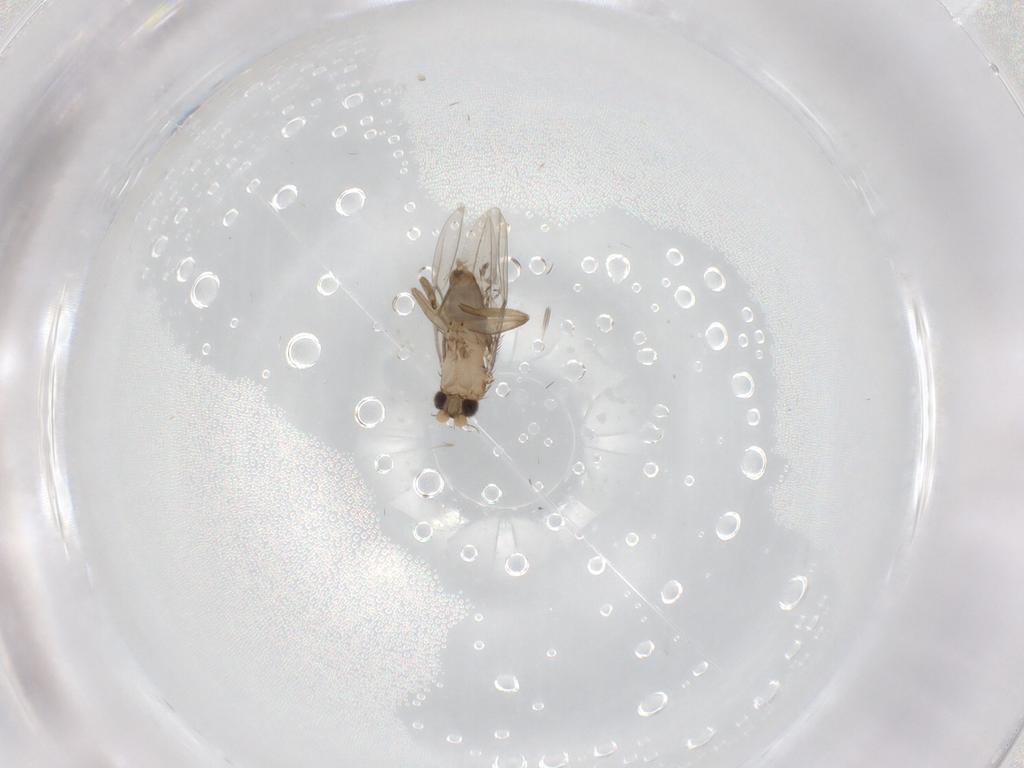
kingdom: Animalia
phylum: Arthropoda
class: Insecta
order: Diptera
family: Phoridae
